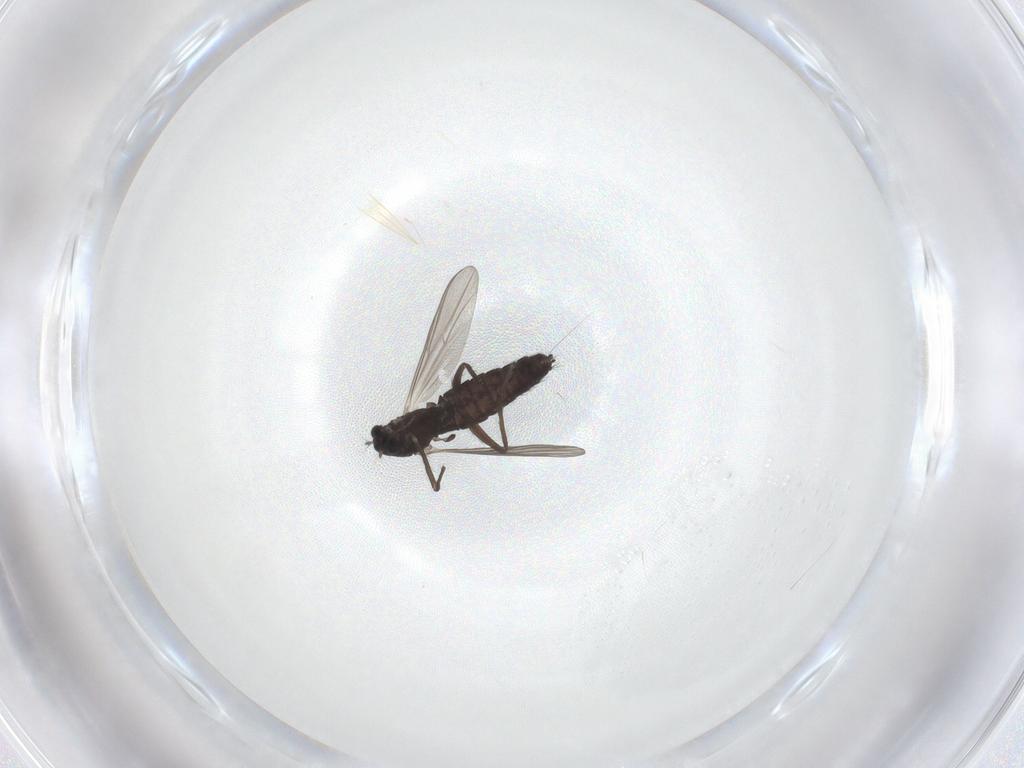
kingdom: Animalia
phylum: Arthropoda
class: Insecta
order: Diptera
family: Chironomidae
